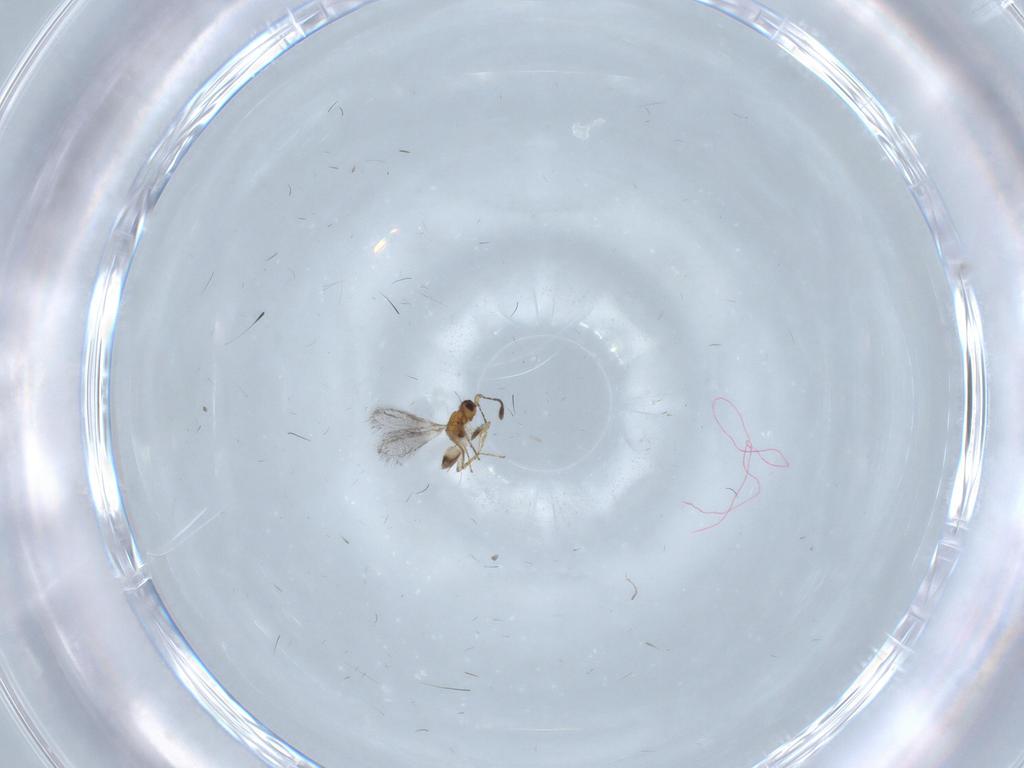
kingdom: Animalia
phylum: Arthropoda
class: Insecta
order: Hymenoptera
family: Mymaridae
